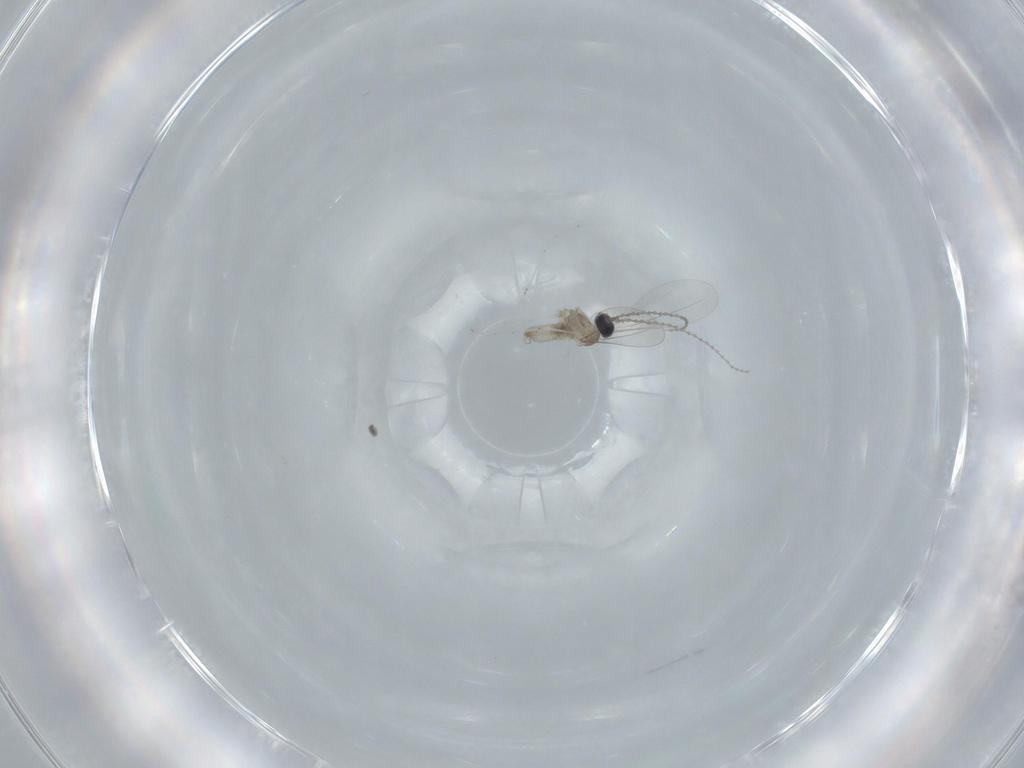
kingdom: Animalia
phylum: Arthropoda
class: Insecta
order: Diptera
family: Cecidomyiidae
